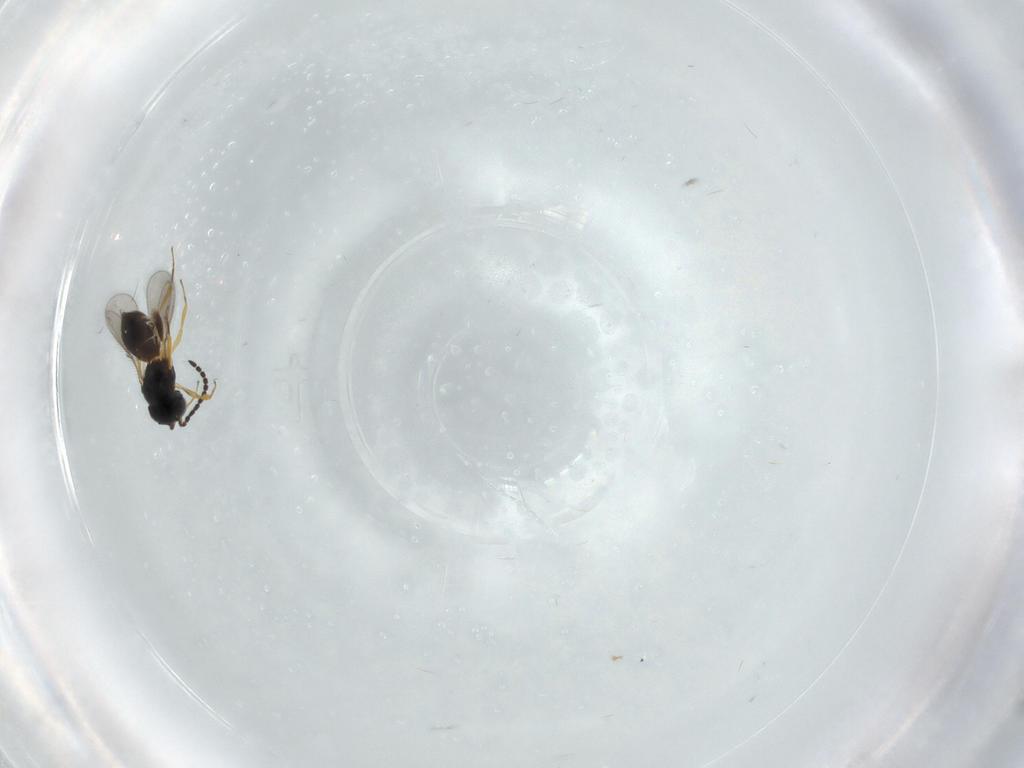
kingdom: Animalia
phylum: Arthropoda
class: Insecta
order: Hymenoptera
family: Scelionidae
